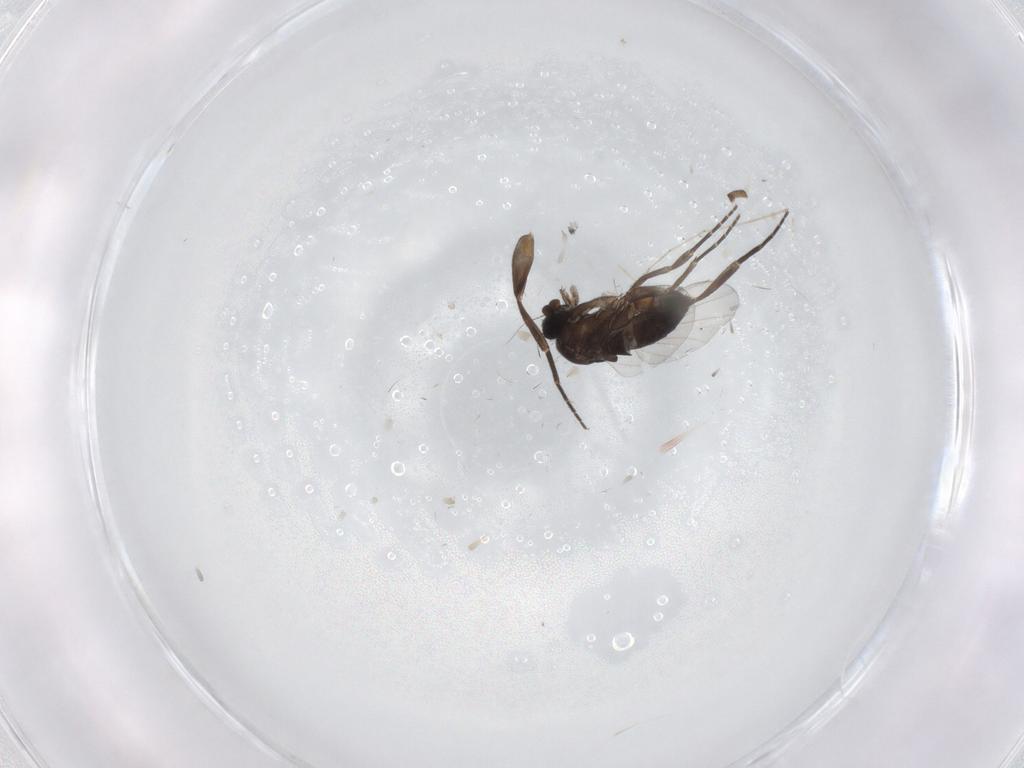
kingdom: Animalia
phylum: Arthropoda
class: Insecta
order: Diptera
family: Phoridae
